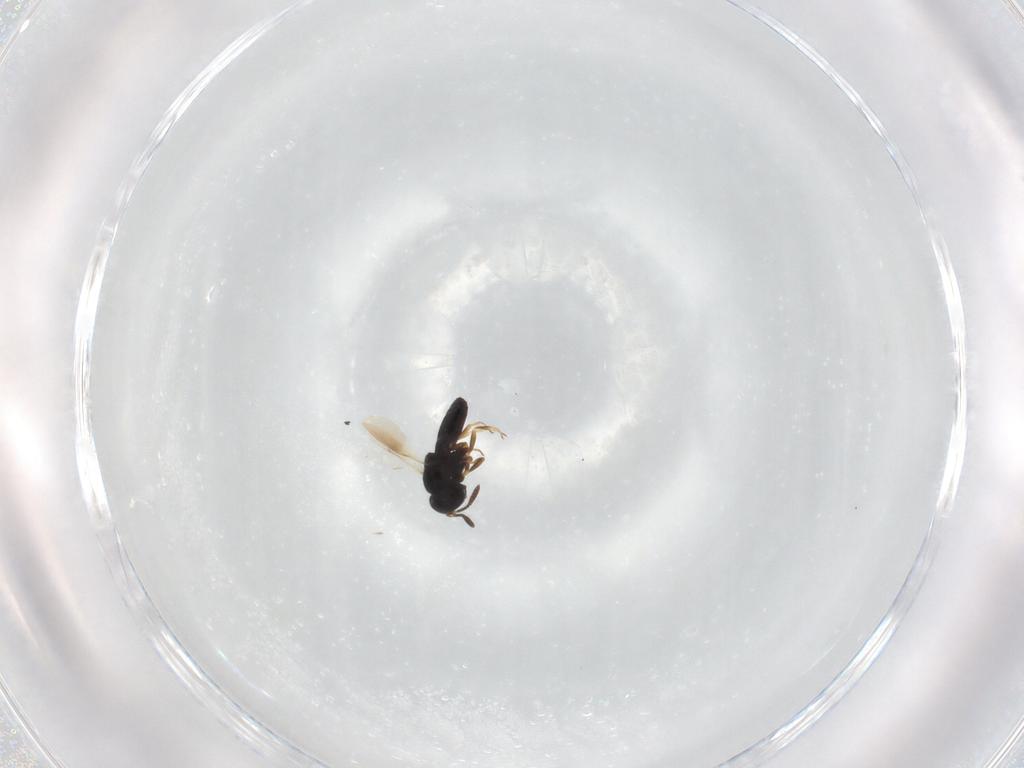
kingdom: Animalia
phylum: Arthropoda
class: Insecta
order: Hymenoptera
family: Scelionidae
